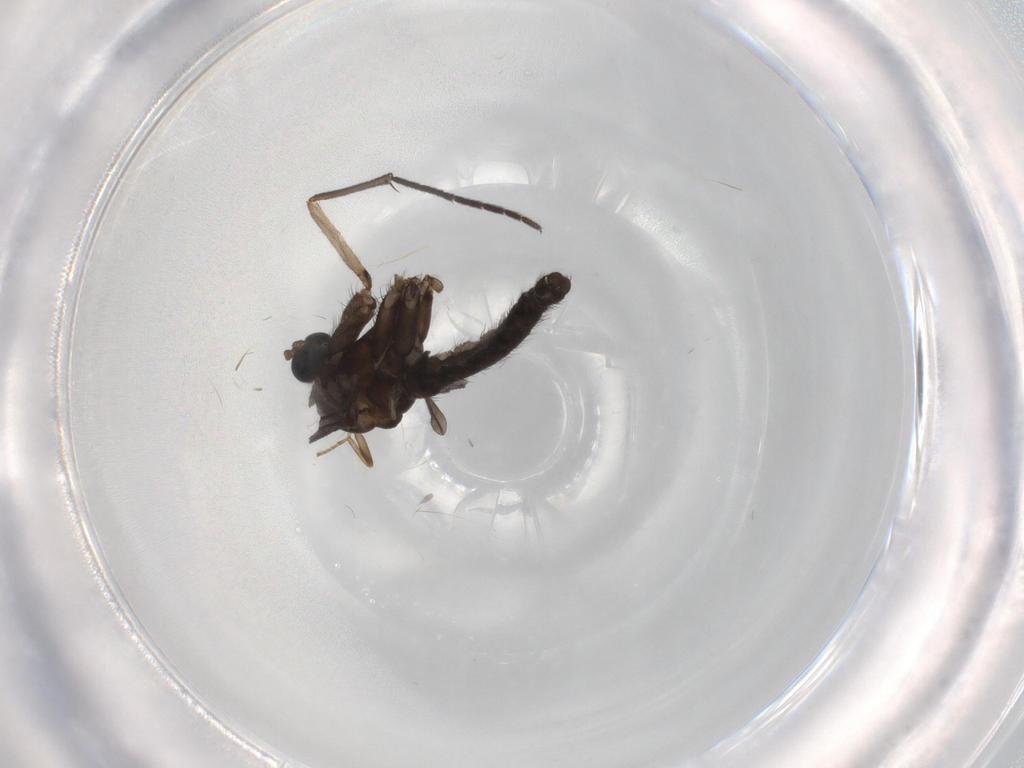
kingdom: Animalia
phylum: Arthropoda
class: Insecta
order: Diptera
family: Sciaridae
